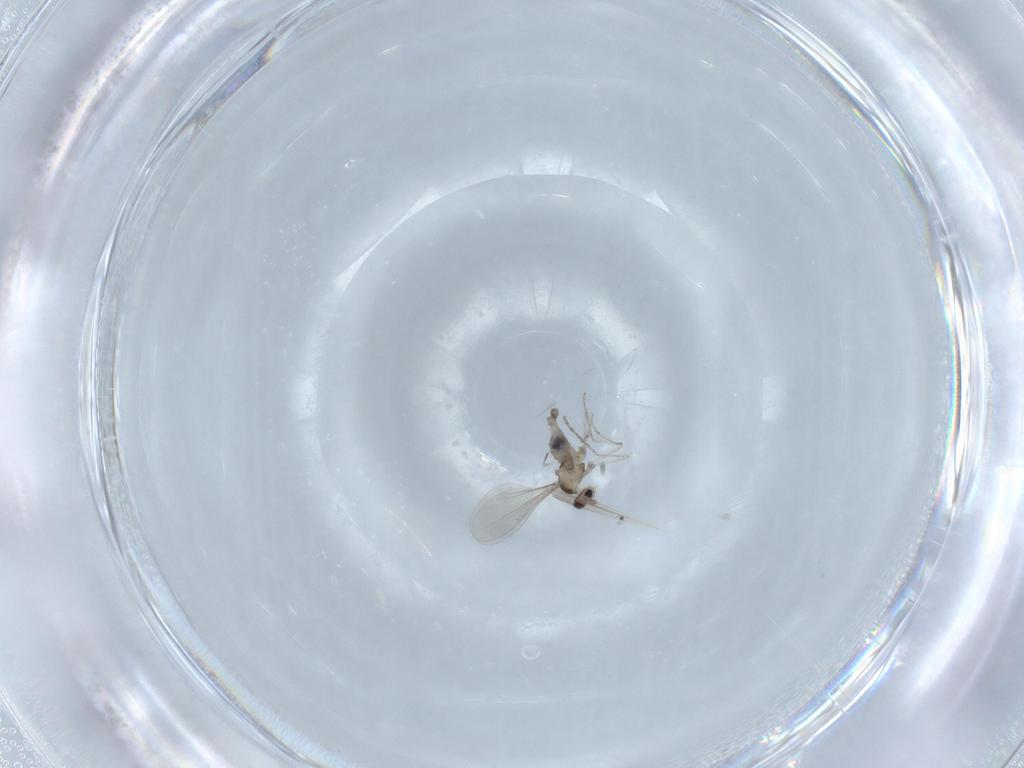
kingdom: Animalia
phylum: Arthropoda
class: Insecta
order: Diptera
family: Cecidomyiidae
